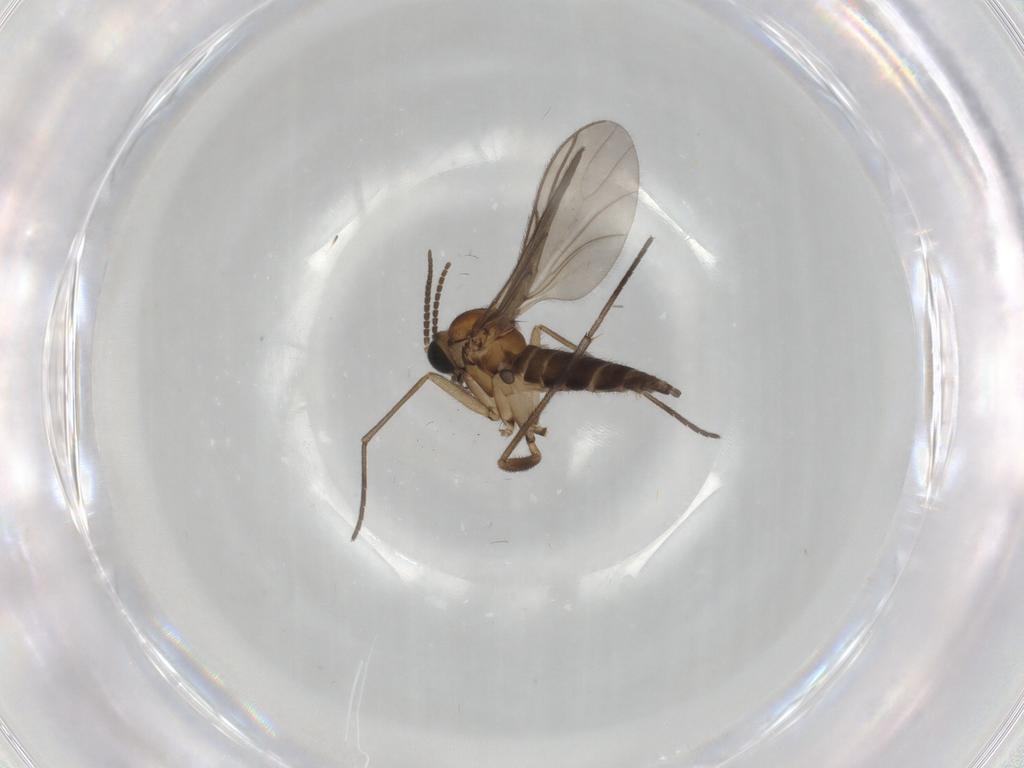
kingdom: Animalia
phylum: Arthropoda
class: Insecta
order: Diptera
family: Sciaridae
